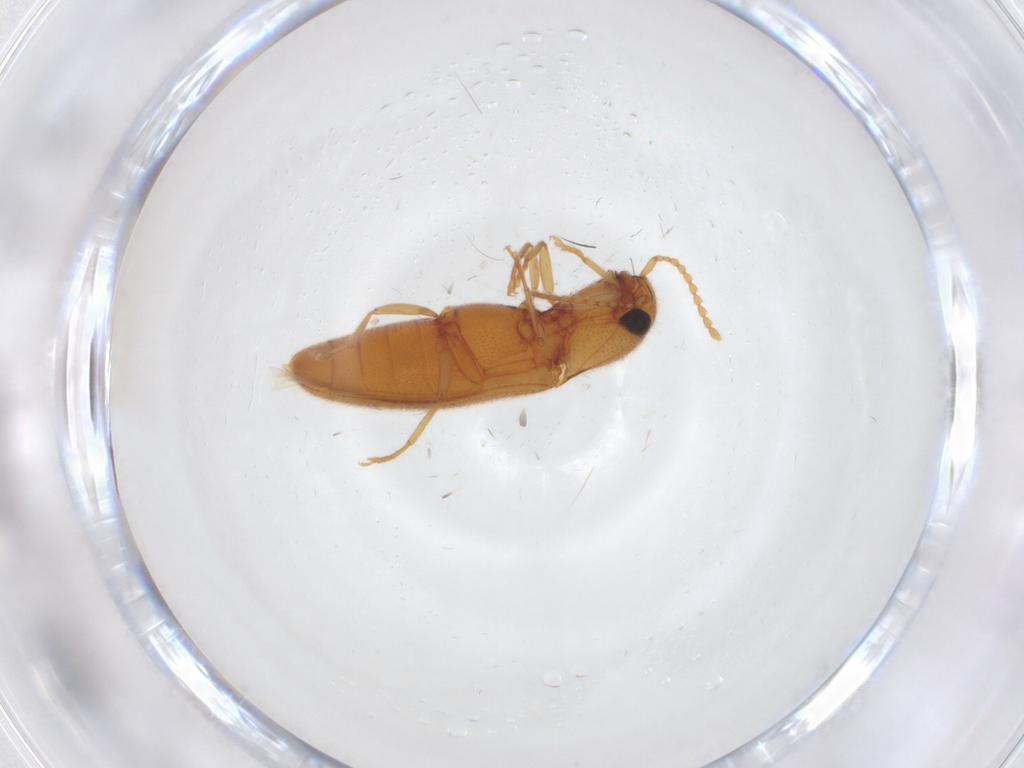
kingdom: Animalia
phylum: Arthropoda
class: Insecta
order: Coleoptera
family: Elateridae
